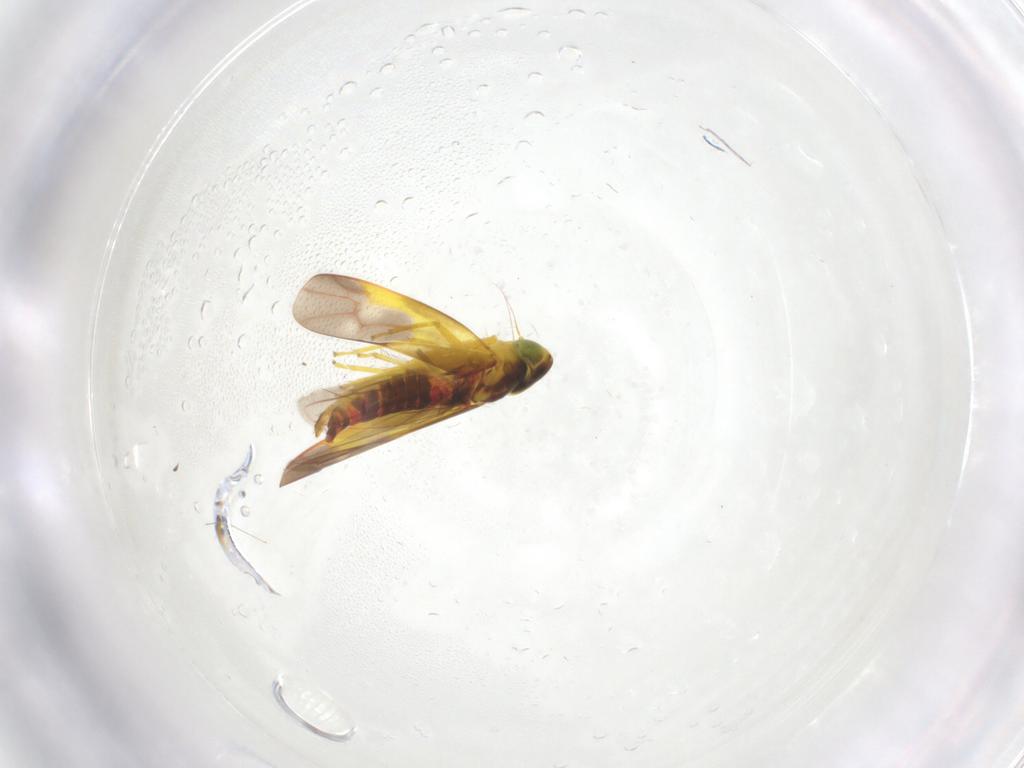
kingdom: Animalia
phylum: Arthropoda
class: Insecta
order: Hemiptera
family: Cicadellidae
